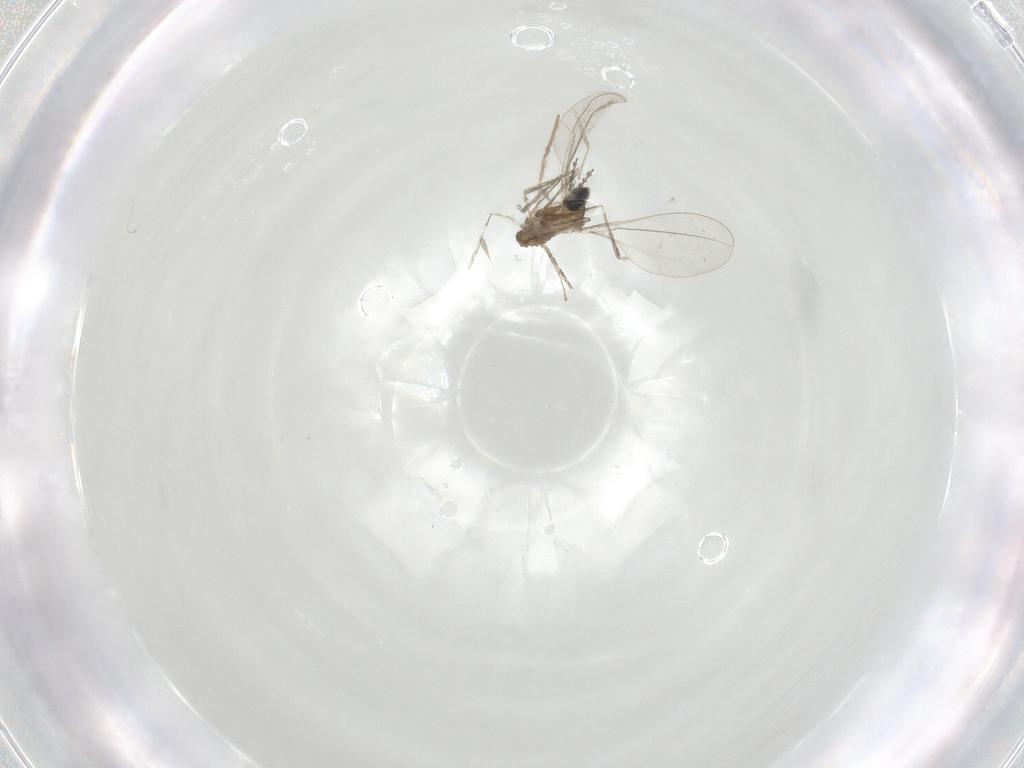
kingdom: Animalia
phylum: Arthropoda
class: Insecta
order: Diptera
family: Cecidomyiidae
